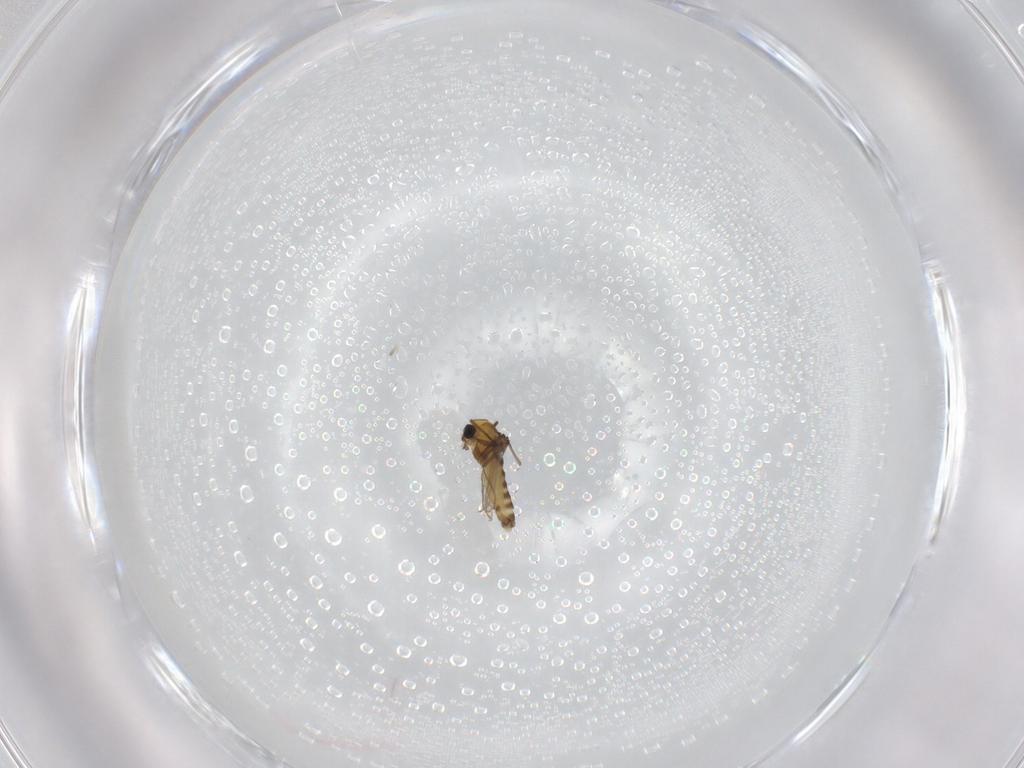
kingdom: Animalia
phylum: Arthropoda
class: Insecta
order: Diptera
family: Chironomidae
